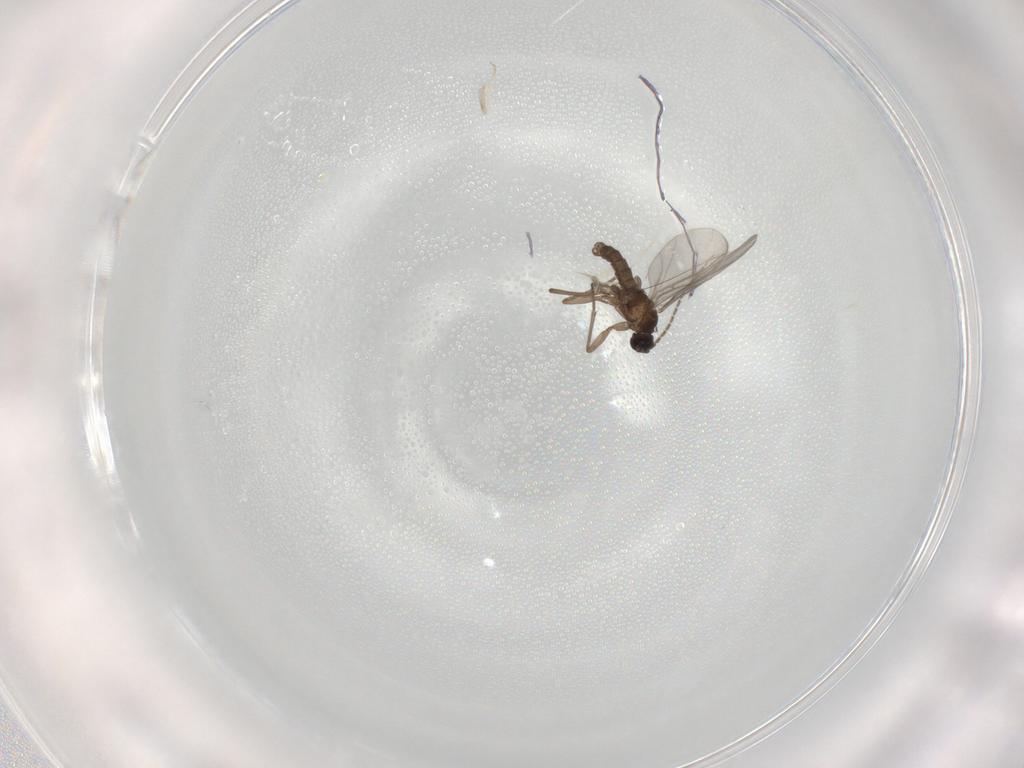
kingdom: Animalia
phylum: Arthropoda
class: Insecta
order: Diptera
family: Sciaridae
